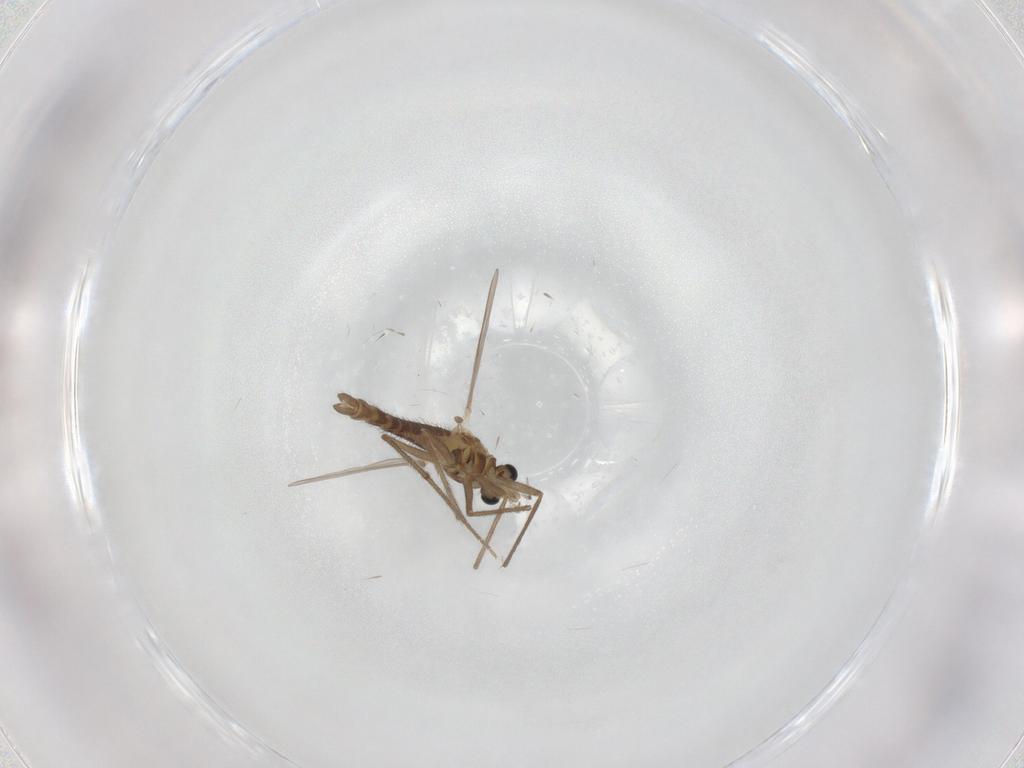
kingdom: Animalia
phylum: Arthropoda
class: Insecta
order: Diptera
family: Chironomidae
